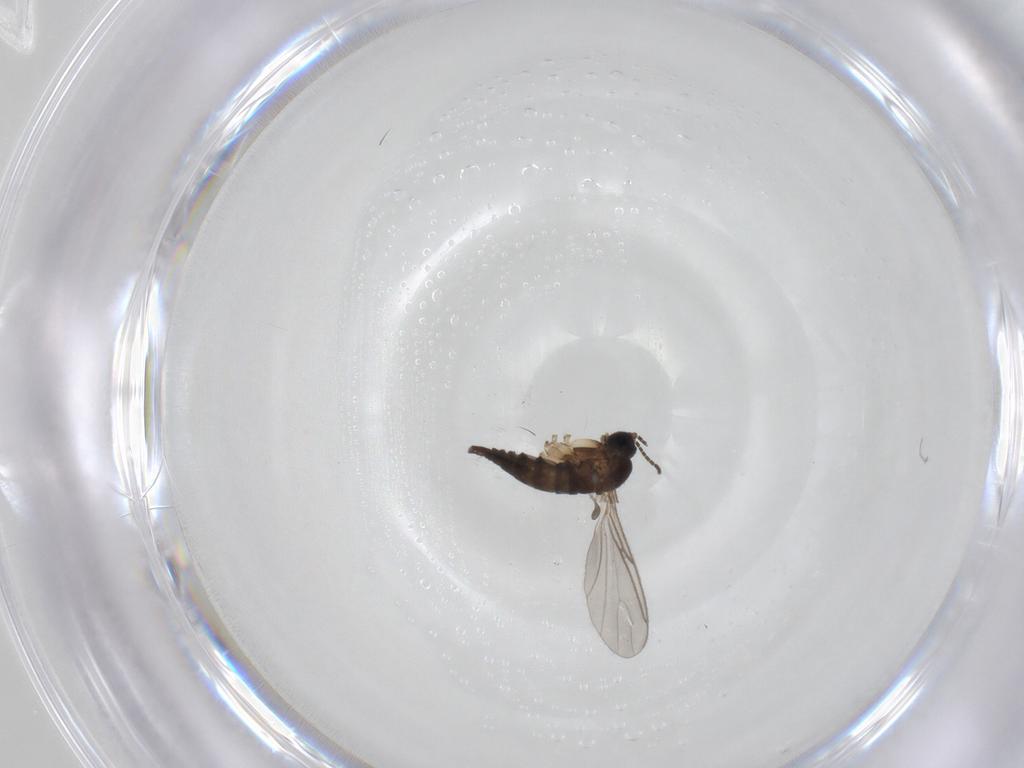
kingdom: Animalia
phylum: Arthropoda
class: Insecta
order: Diptera
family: Sciaridae
